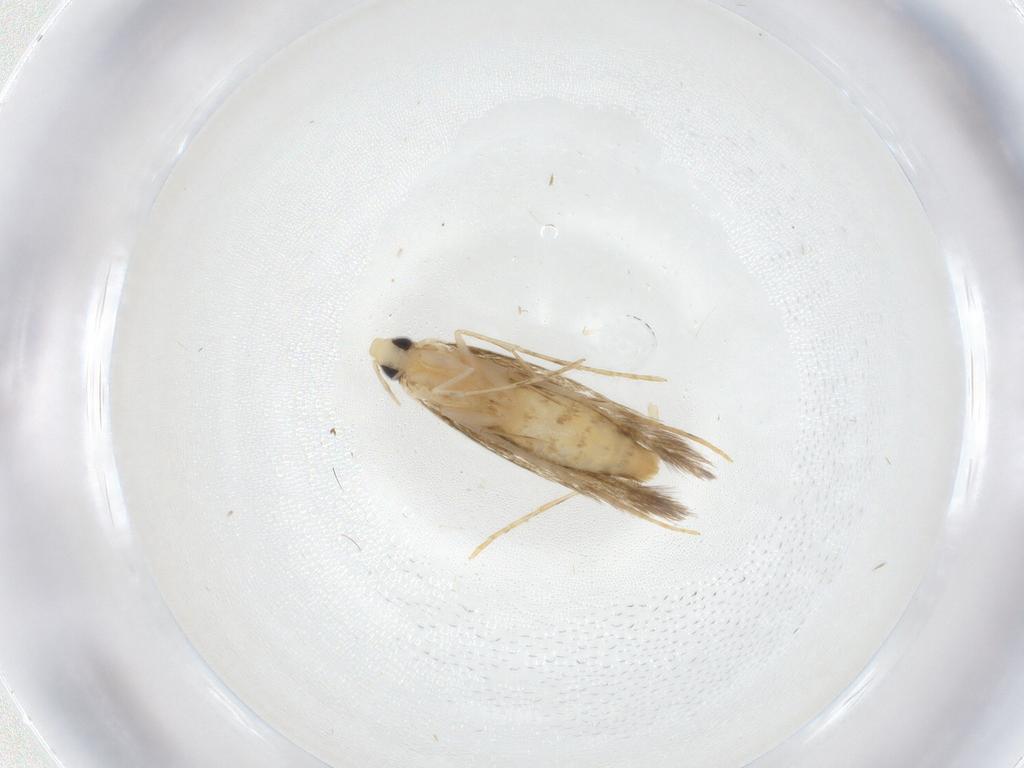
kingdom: Animalia
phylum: Arthropoda
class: Insecta
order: Lepidoptera
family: Psychidae
